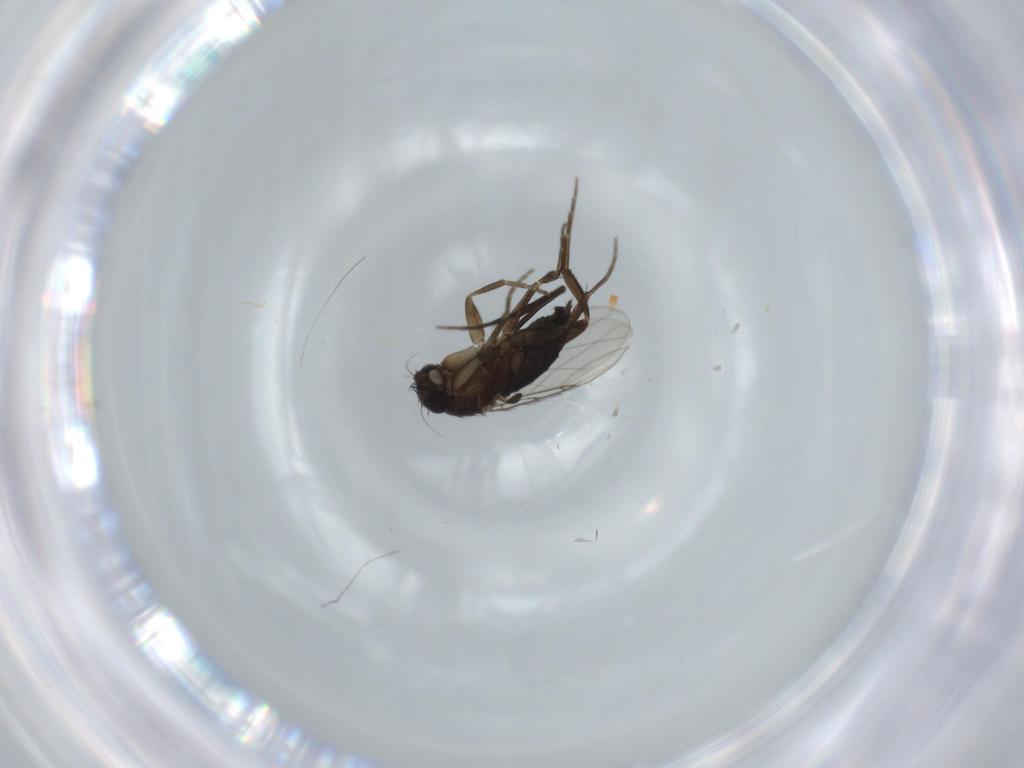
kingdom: Animalia
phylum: Arthropoda
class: Insecta
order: Diptera
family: Phoridae
